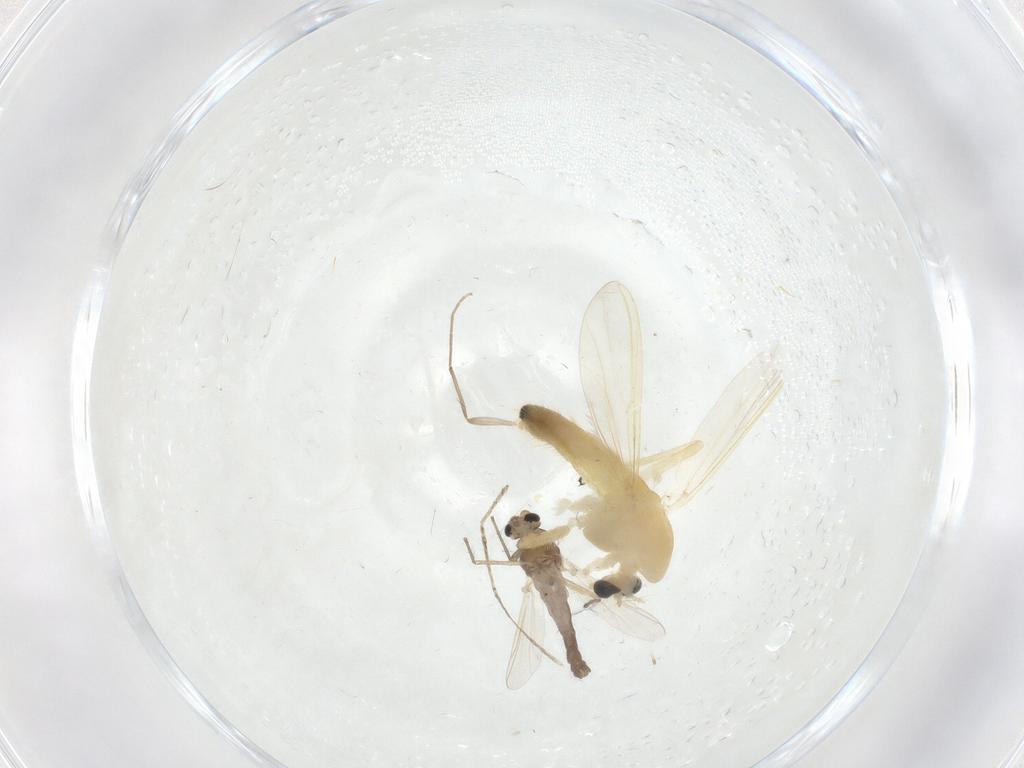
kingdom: Animalia
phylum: Arthropoda
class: Insecta
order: Diptera
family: Chironomidae
